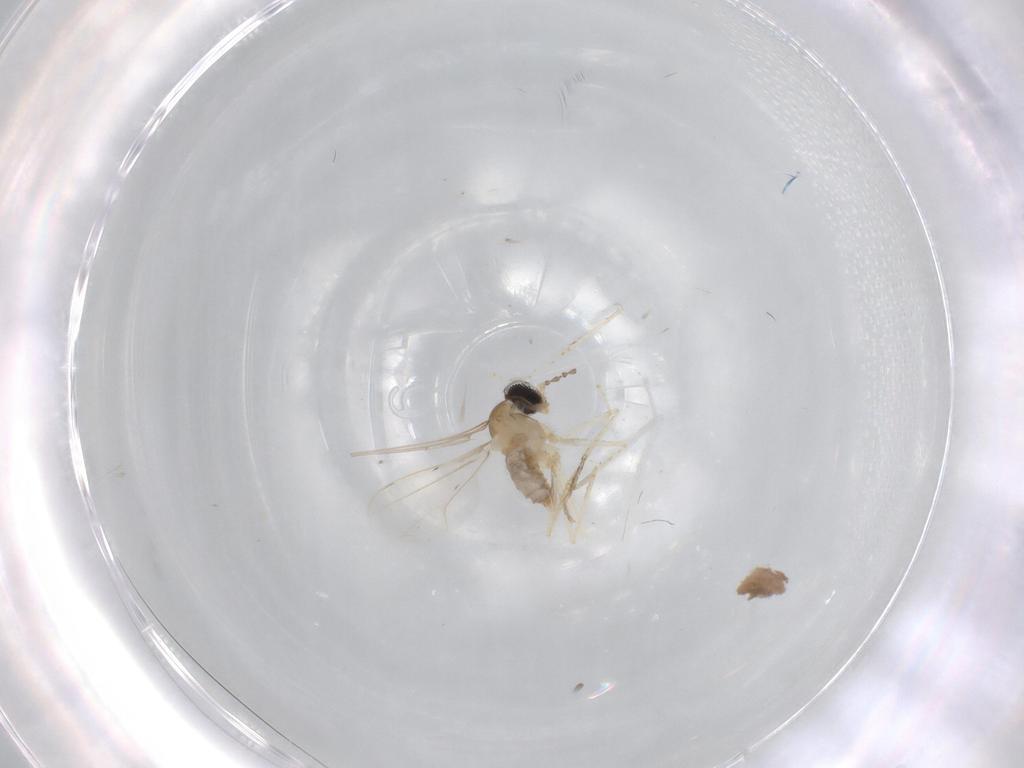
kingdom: Animalia
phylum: Arthropoda
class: Insecta
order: Diptera
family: Cecidomyiidae
